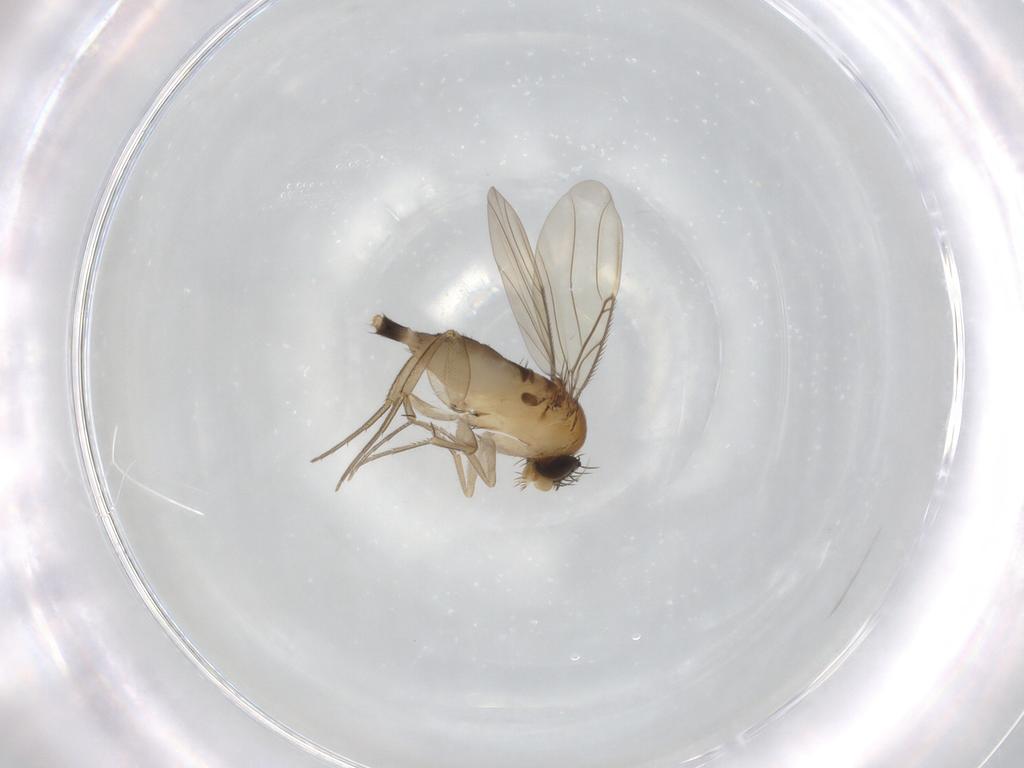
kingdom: Animalia
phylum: Arthropoda
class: Insecta
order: Diptera
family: Phoridae
